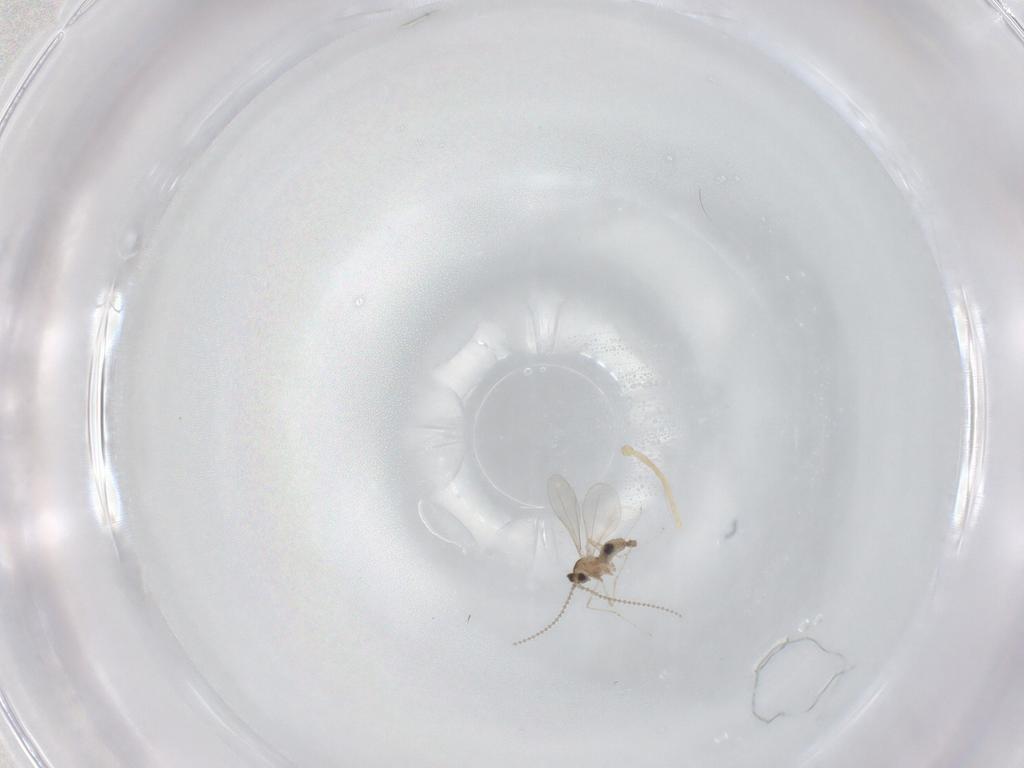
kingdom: Animalia
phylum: Arthropoda
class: Insecta
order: Diptera
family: Cecidomyiidae
